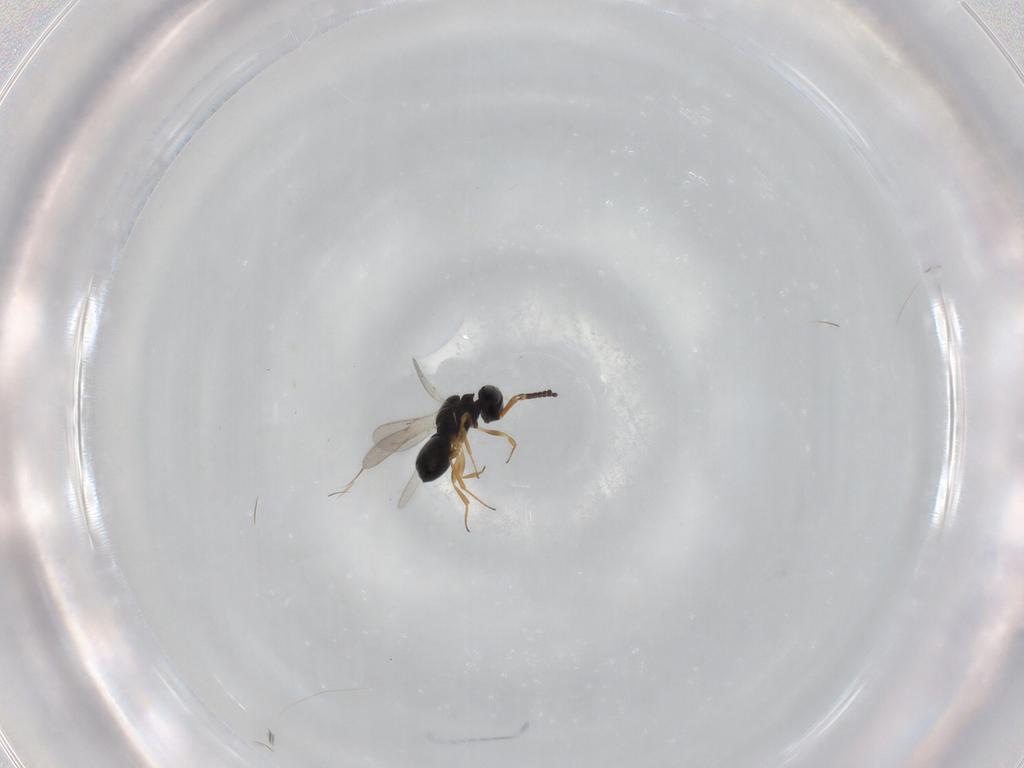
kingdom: Animalia
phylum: Arthropoda
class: Insecta
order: Hymenoptera
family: Scelionidae
